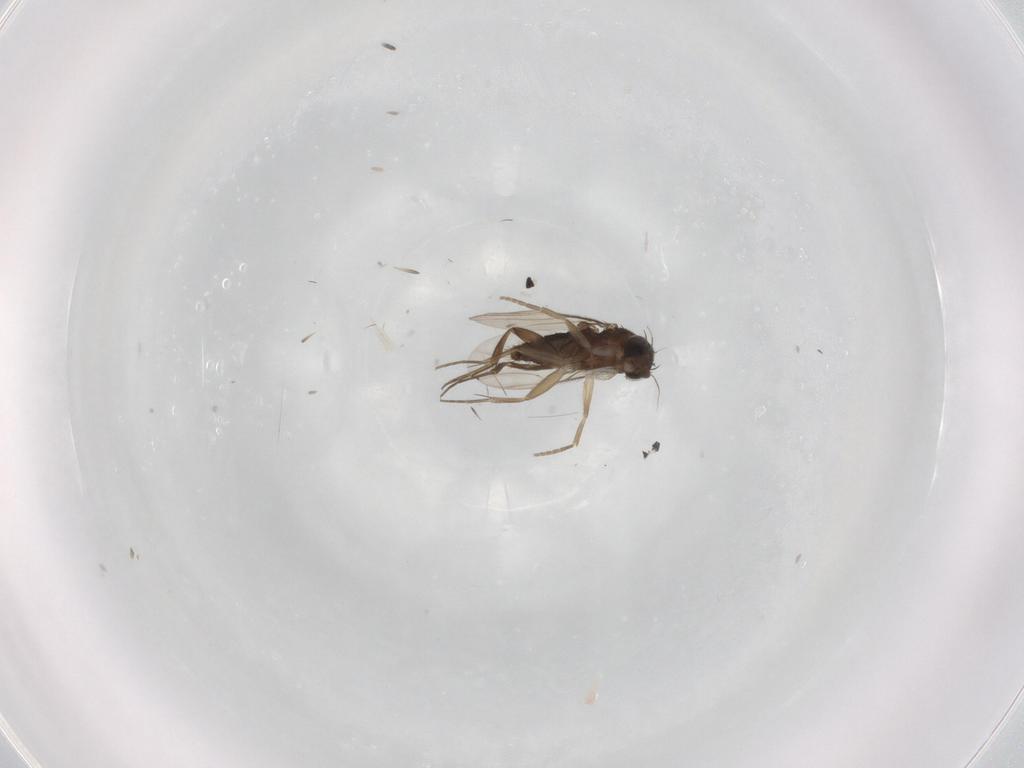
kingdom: Animalia
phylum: Arthropoda
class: Insecta
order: Diptera
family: Phoridae
